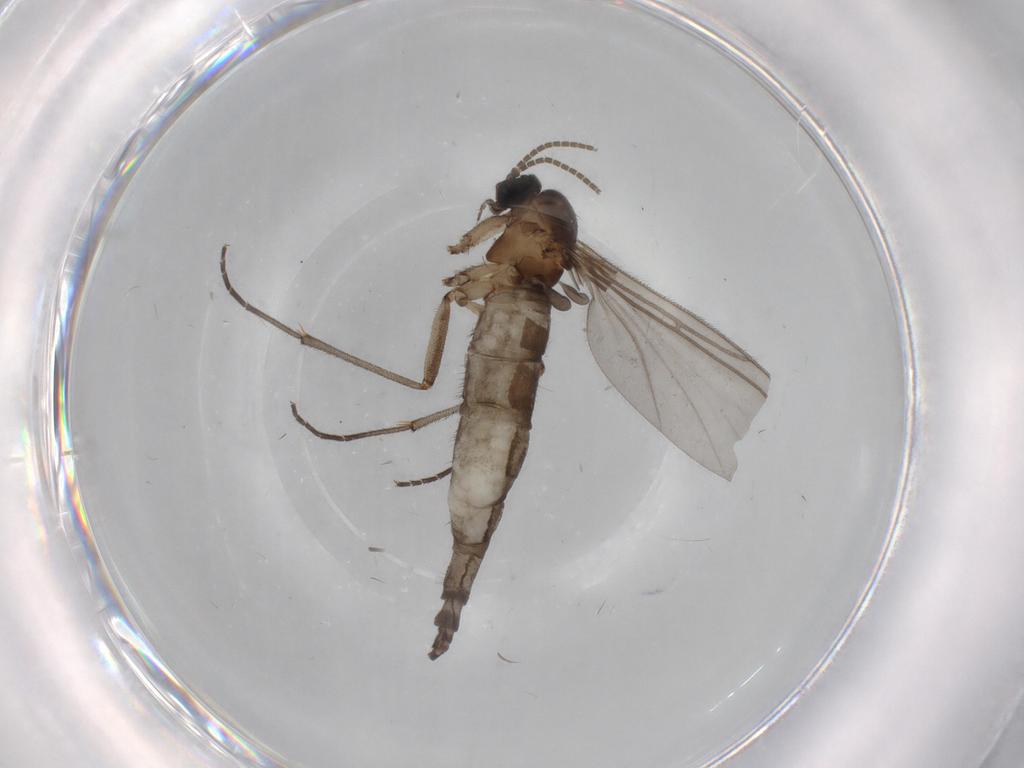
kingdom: Animalia
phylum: Arthropoda
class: Insecta
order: Diptera
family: Stratiomyidae
